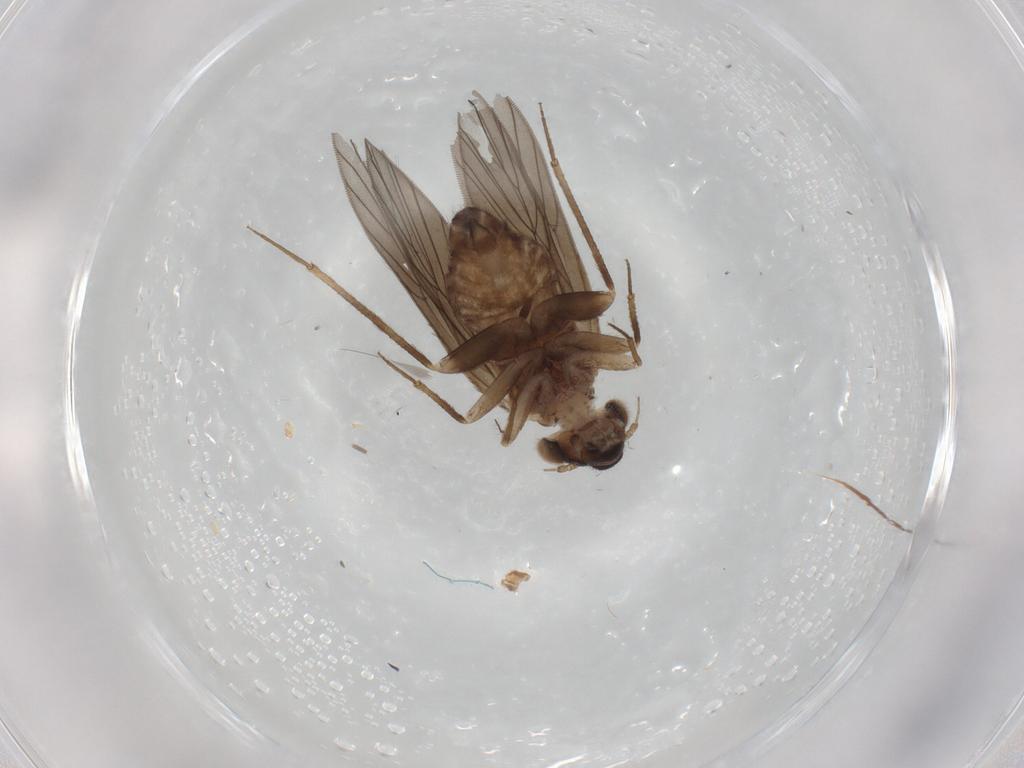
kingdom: Animalia
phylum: Arthropoda
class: Insecta
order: Psocodea
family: Lepidopsocidae
